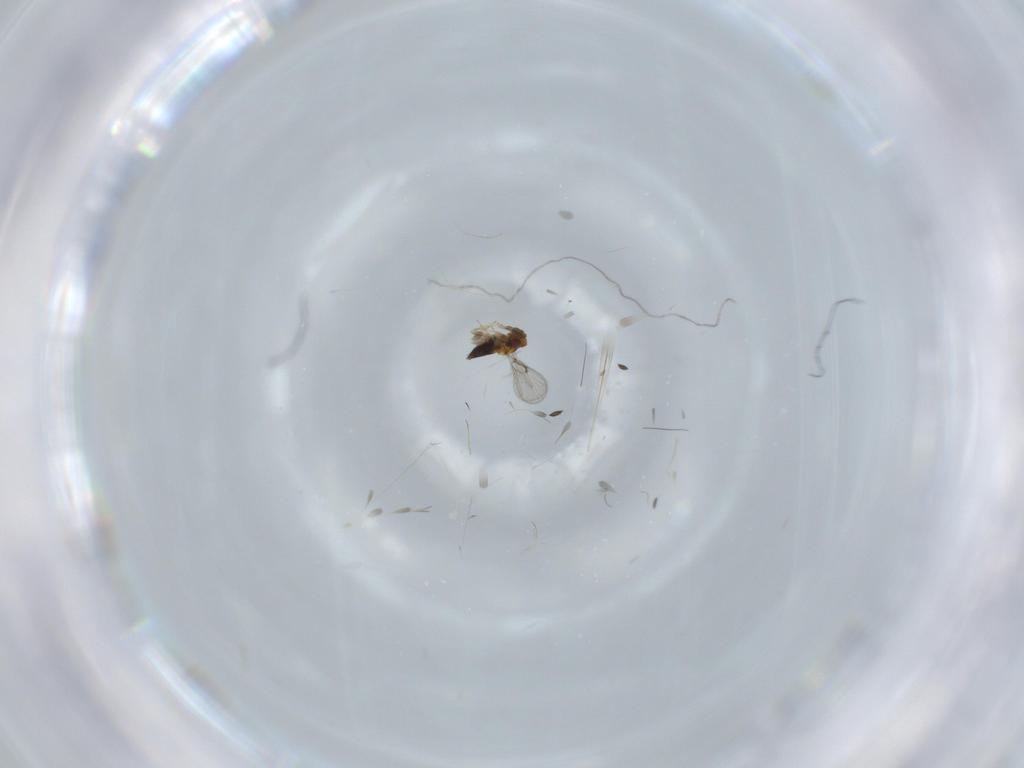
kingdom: Animalia
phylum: Arthropoda
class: Insecta
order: Hymenoptera
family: Trichogrammatidae
